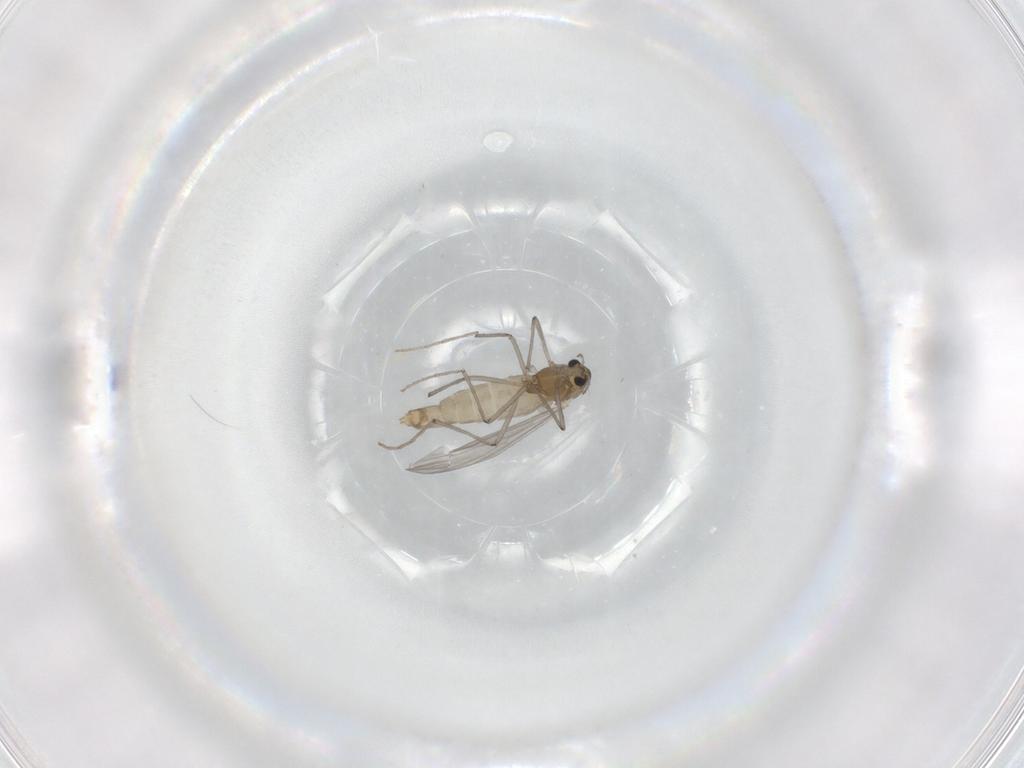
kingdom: Animalia
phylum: Arthropoda
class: Insecta
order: Diptera
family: Chironomidae
